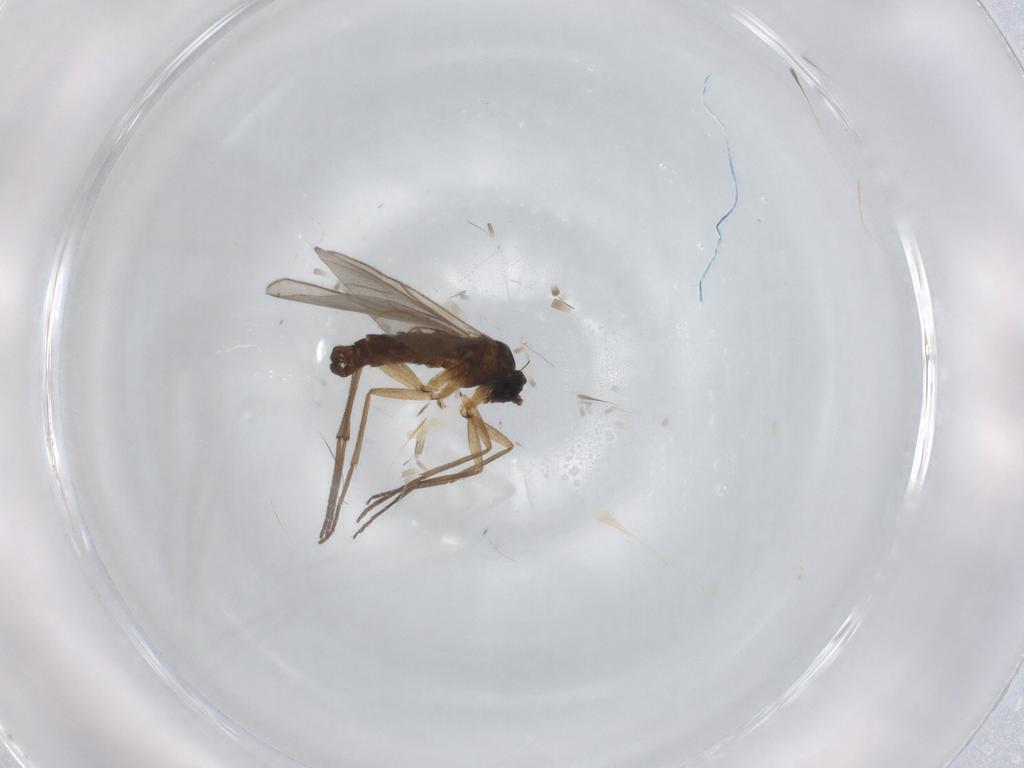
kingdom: Animalia
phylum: Arthropoda
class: Insecta
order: Diptera
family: Sciaridae
